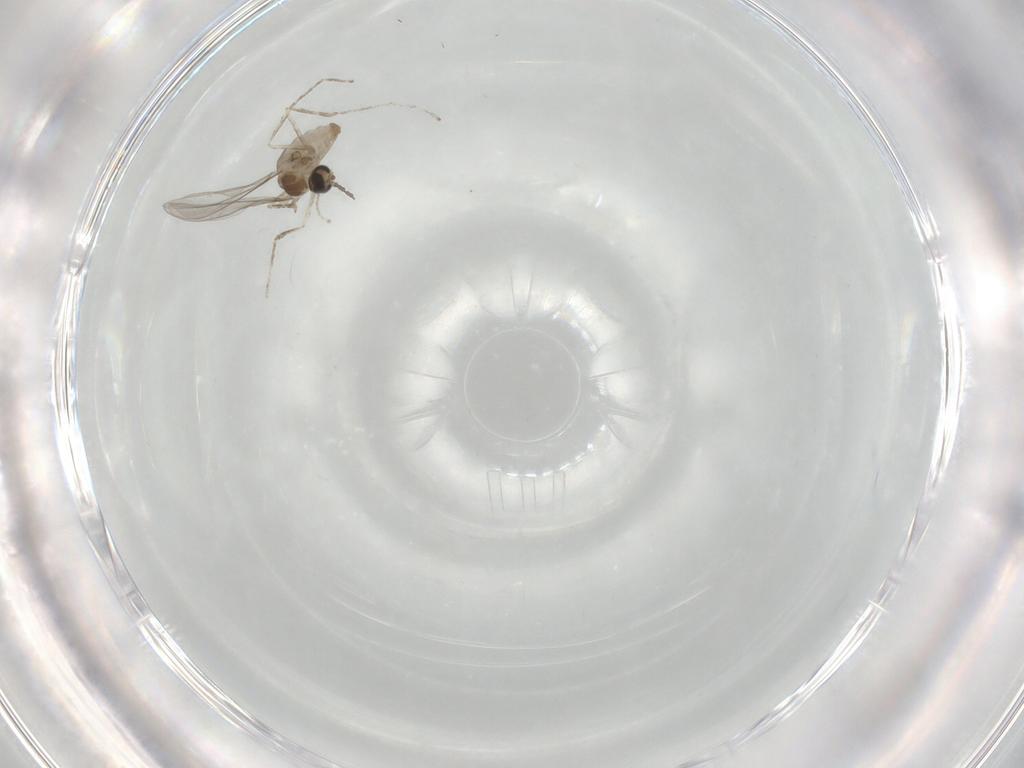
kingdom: Animalia
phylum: Arthropoda
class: Insecta
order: Diptera
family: Cecidomyiidae
